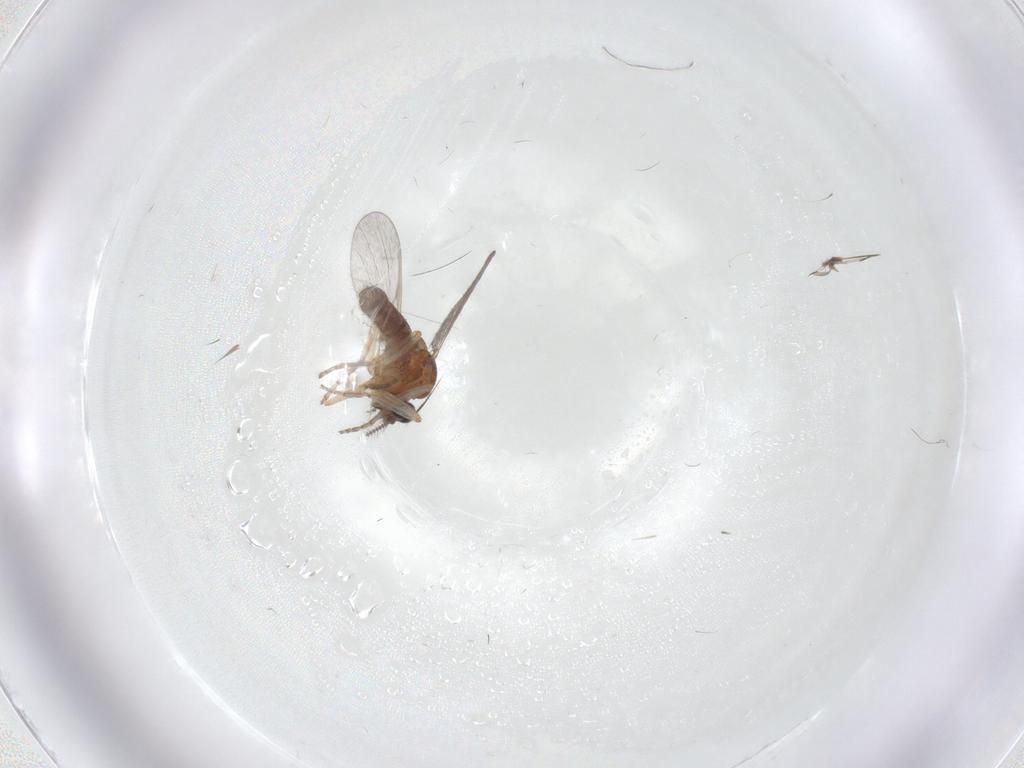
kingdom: Animalia
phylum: Arthropoda
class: Insecta
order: Diptera
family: Ceratopogonidae
